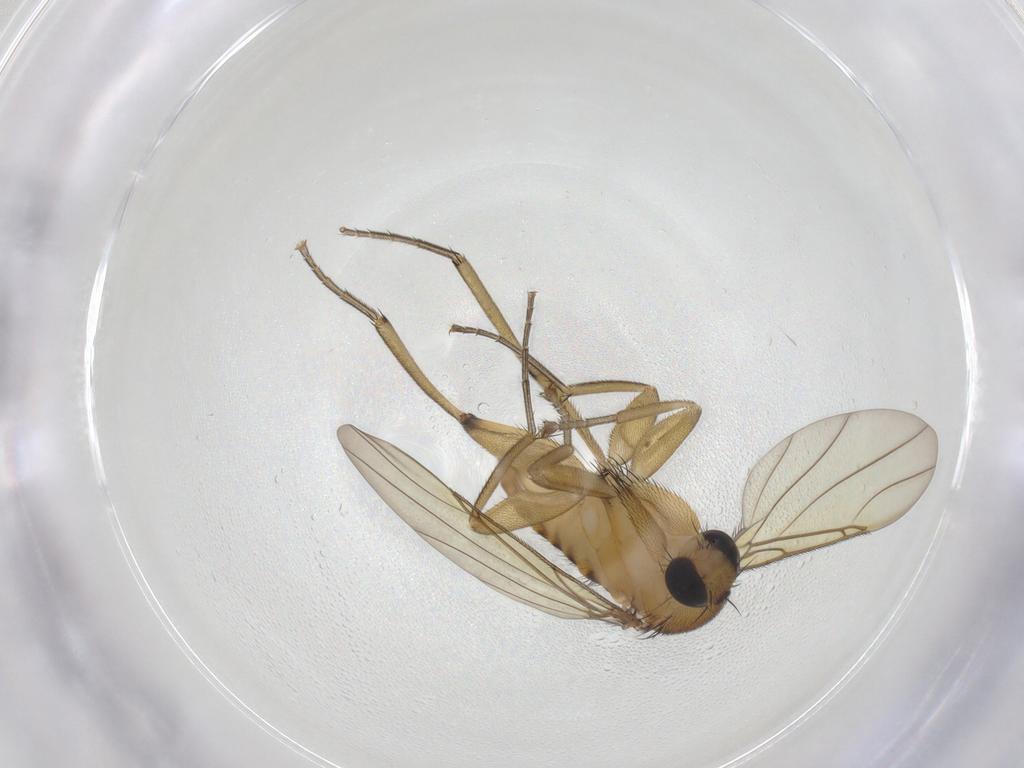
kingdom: Animalia
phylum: Arthropoda
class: Insecta
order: Diptera
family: Phoridae
